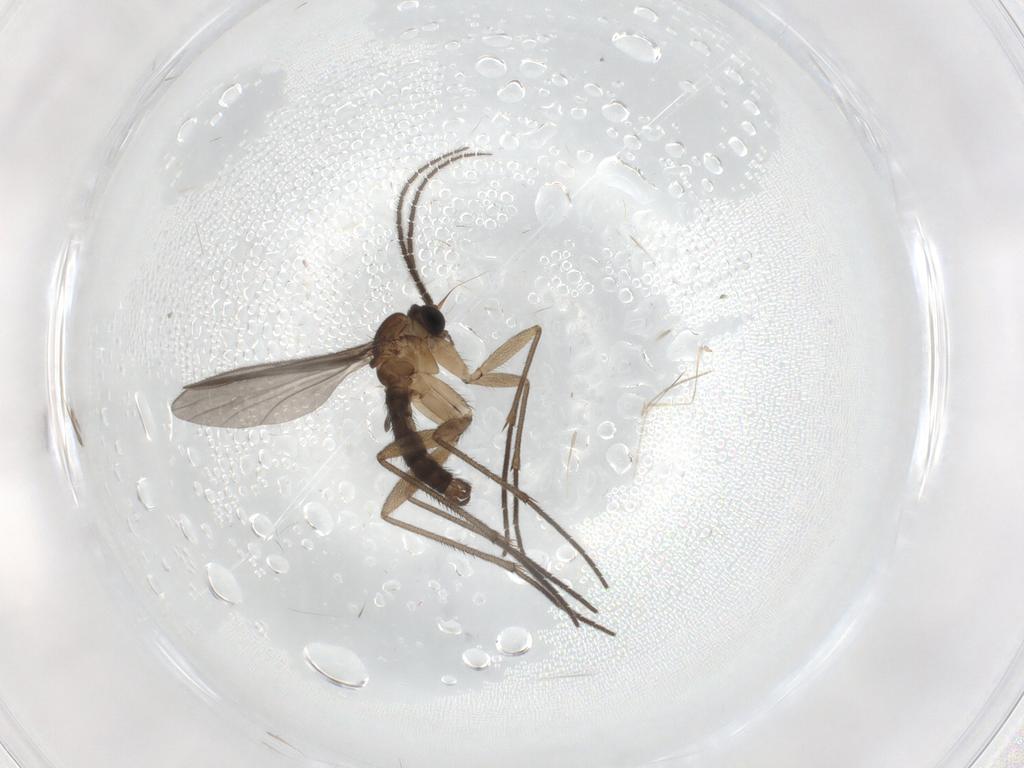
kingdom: Animalia
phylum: Arthropoda
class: Insecta
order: Diptera
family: Chironomidae
